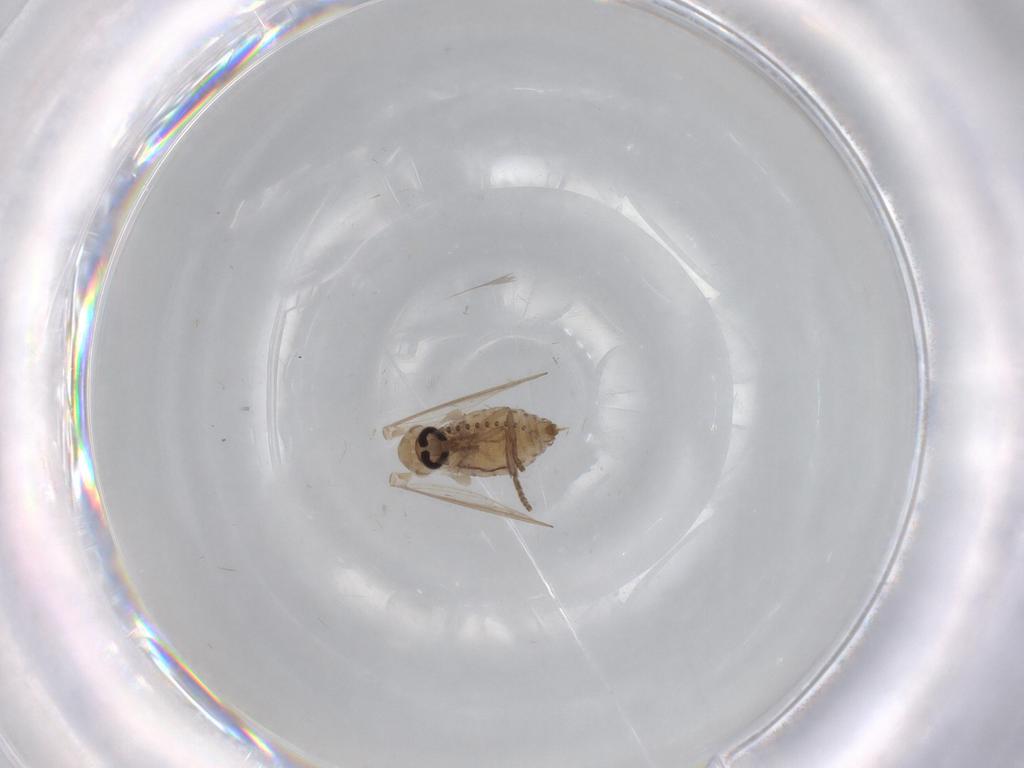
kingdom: Animalia
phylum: Arthropoda
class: Insecta
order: Diptera
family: Psychodidae
